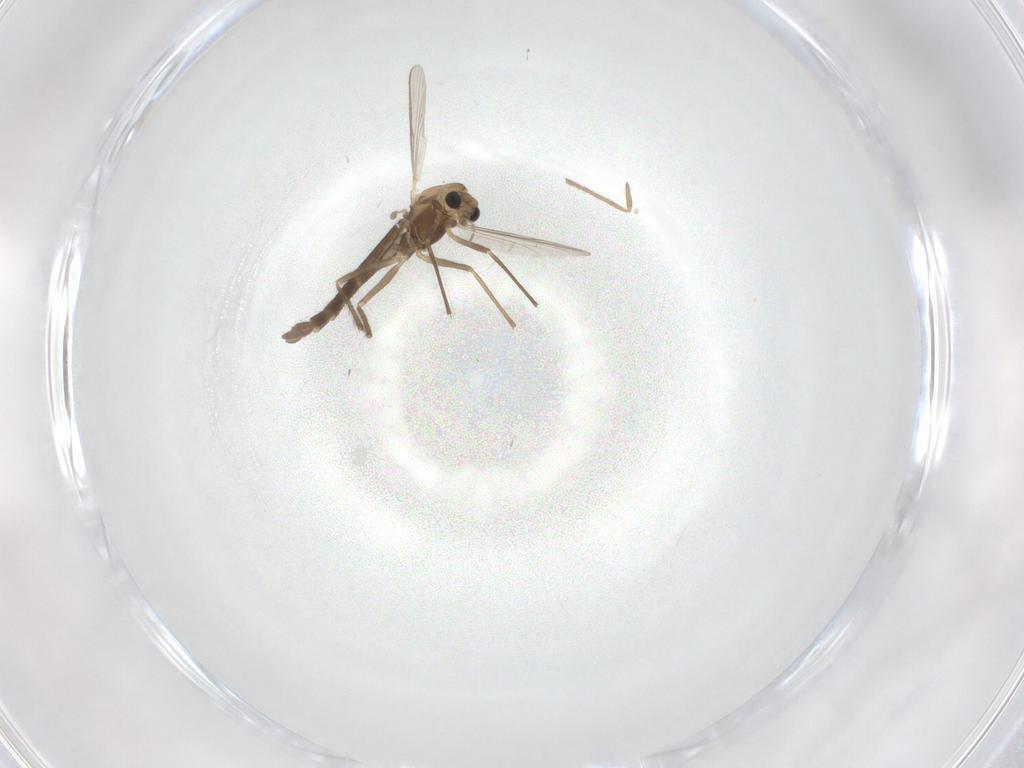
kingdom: Animalia
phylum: Arthropoda
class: Insecta
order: Diptera
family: Chironomidae
